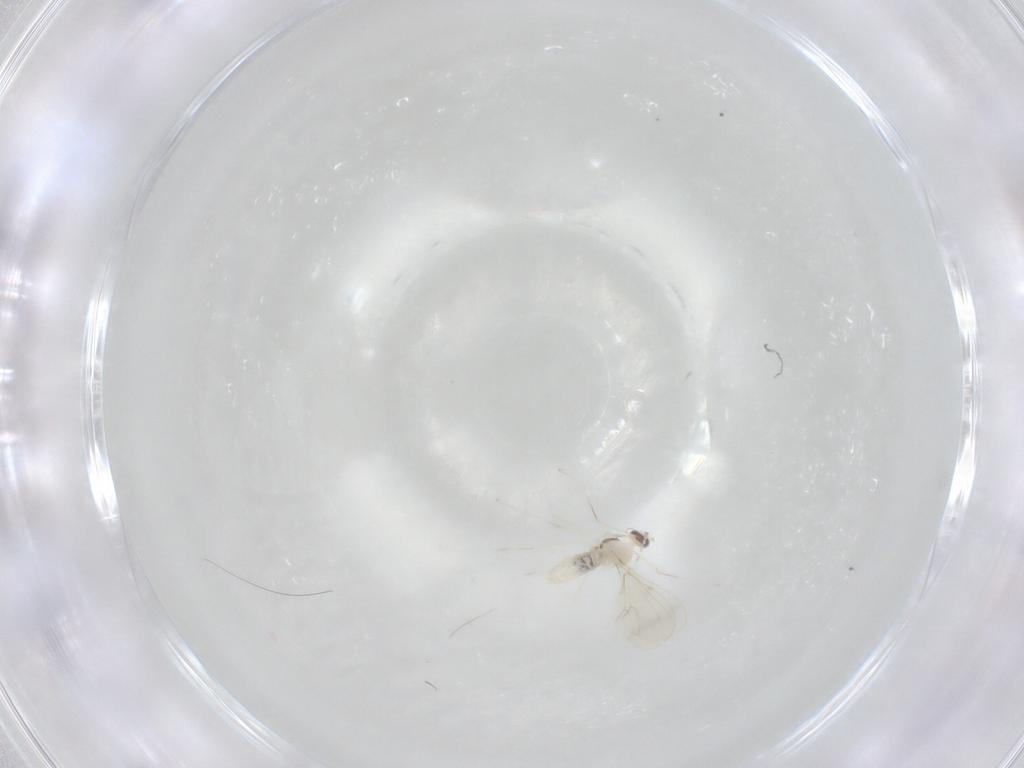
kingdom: Animalia
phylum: Arthropoda
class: Insecta
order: Diptera
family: Cecidomyiidae
